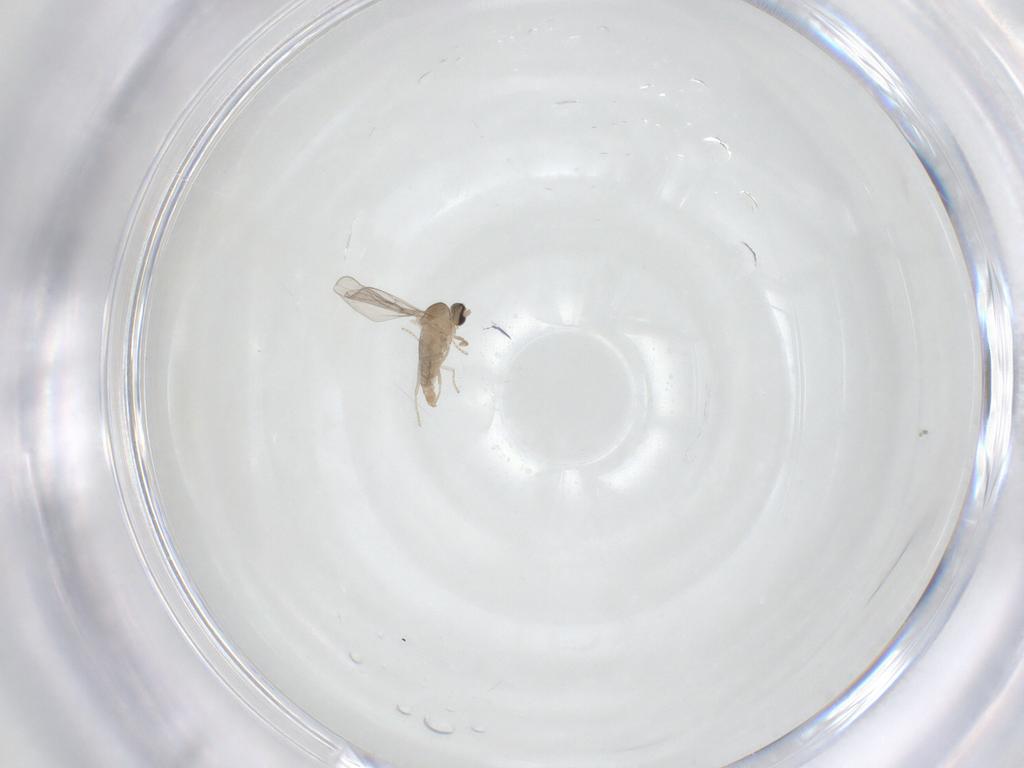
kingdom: Animalia
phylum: Arthropoda
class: Insecta
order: Diptera
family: Cecidomyiidae
